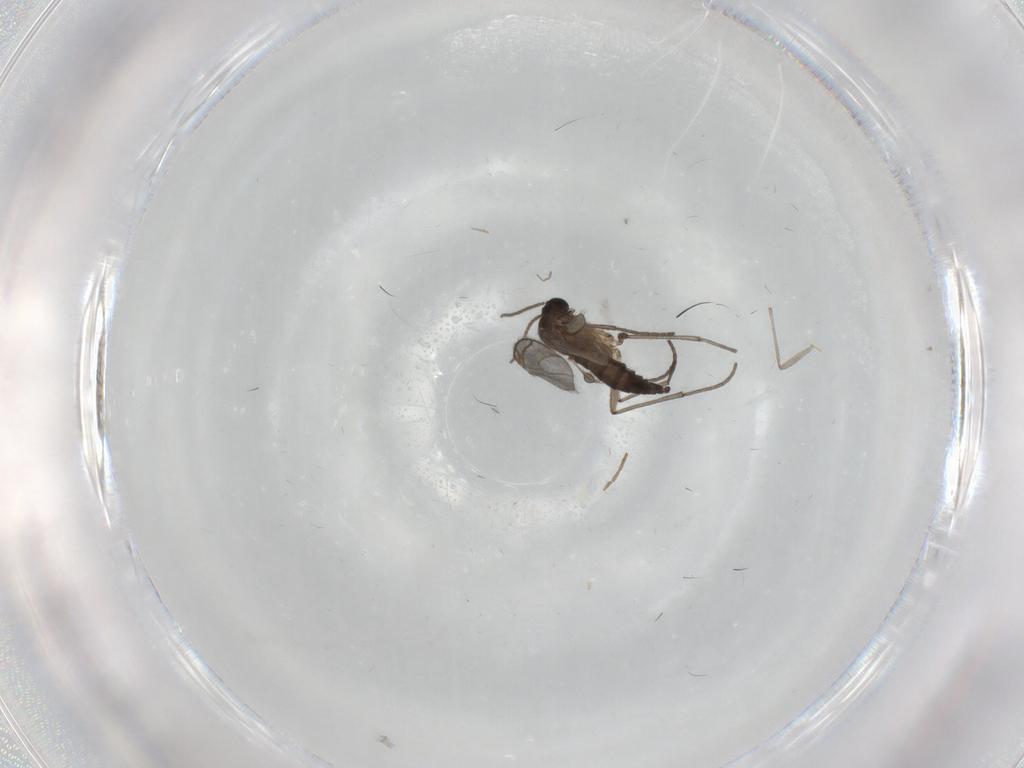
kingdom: Animalia
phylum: Arthropoda
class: Insecta
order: Diptera
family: Sciaridae
